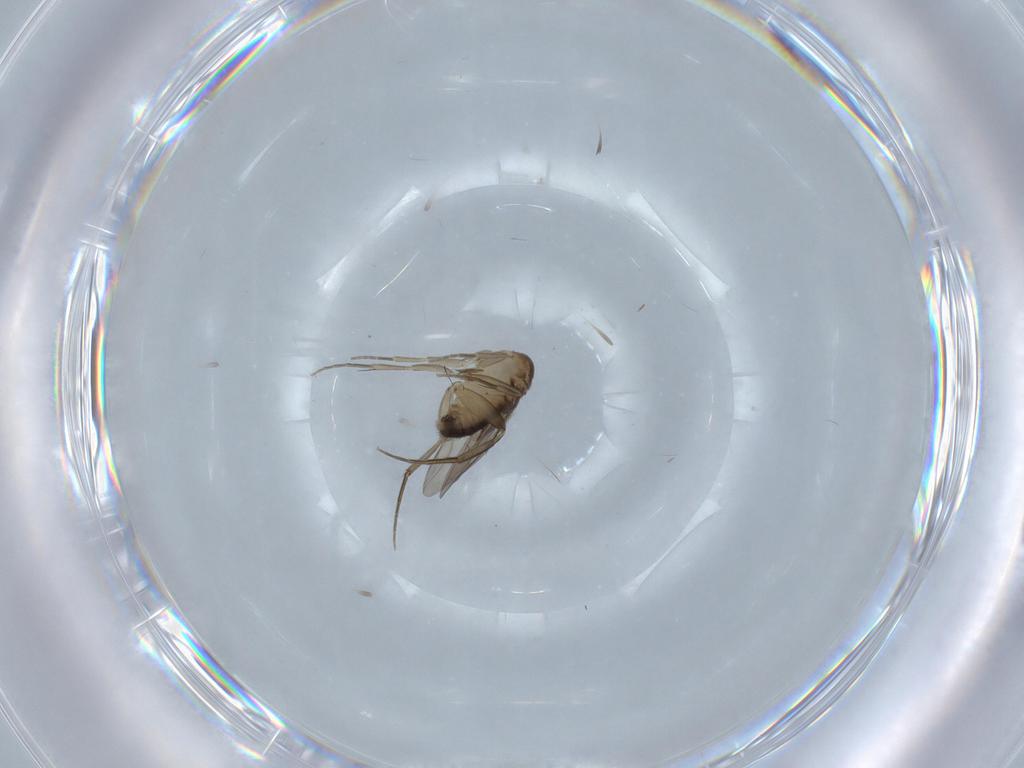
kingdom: Animalia
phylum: Arthropoda
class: Insecta
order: Diptera
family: Phoridae
